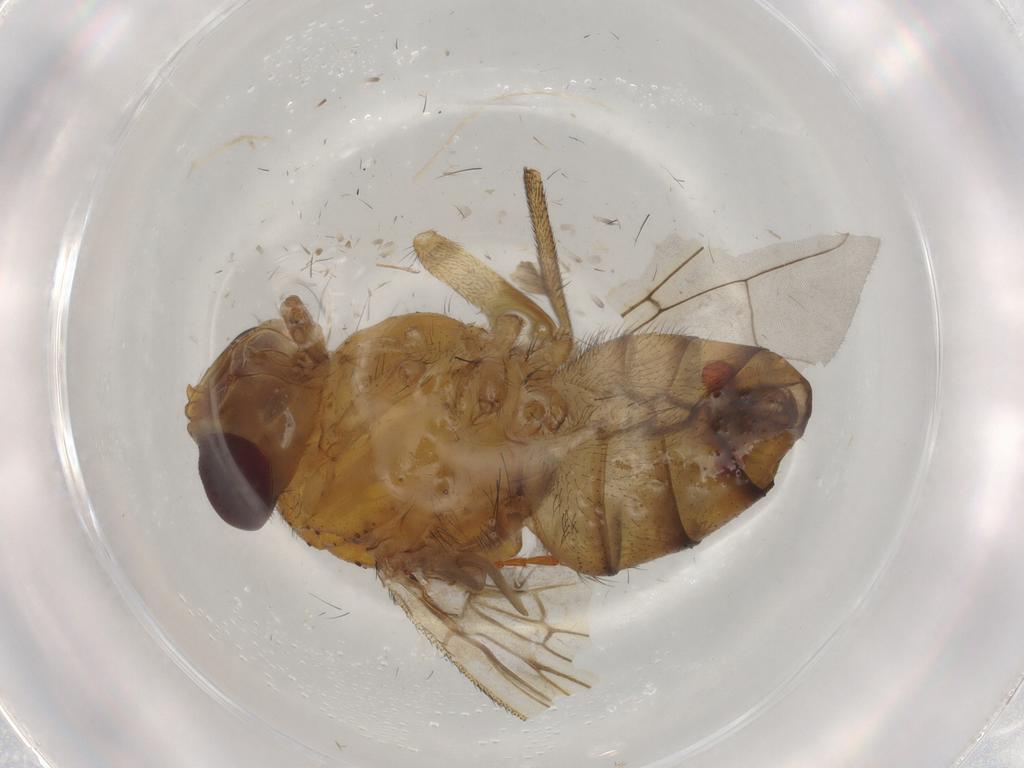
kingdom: Animalia
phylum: Arthropoda
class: Insecta
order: Diptera
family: Calliphoridae
